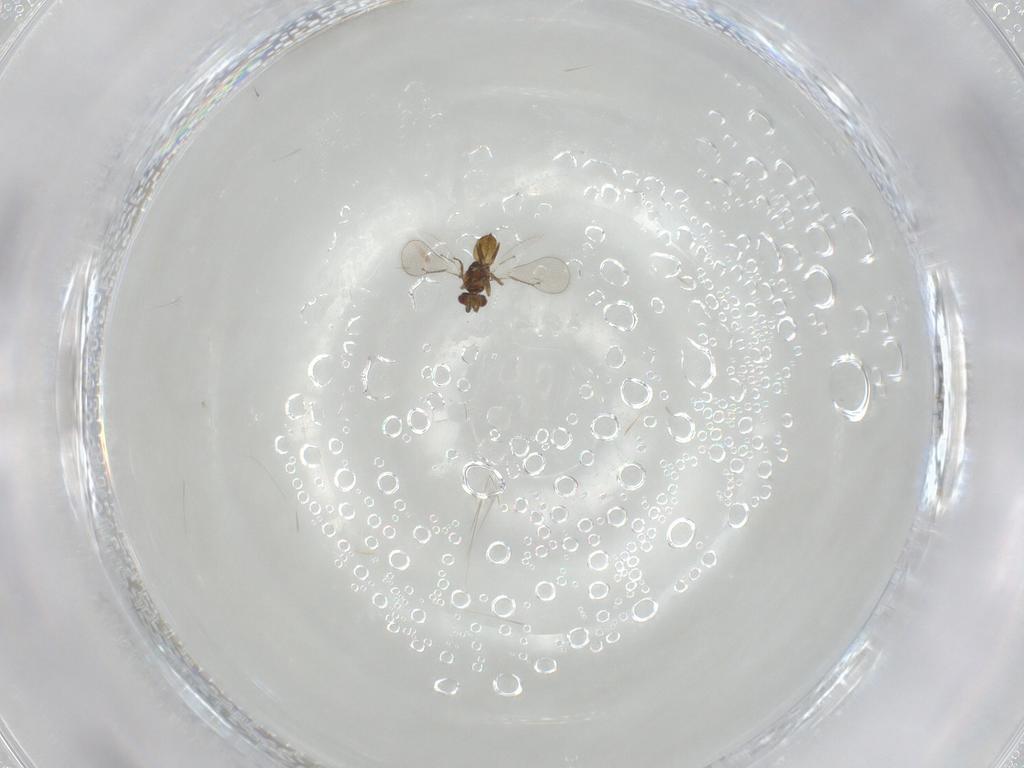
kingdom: Animalia
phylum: Arthropoda
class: Insecta
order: Hymenoptera
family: Eulophidae
